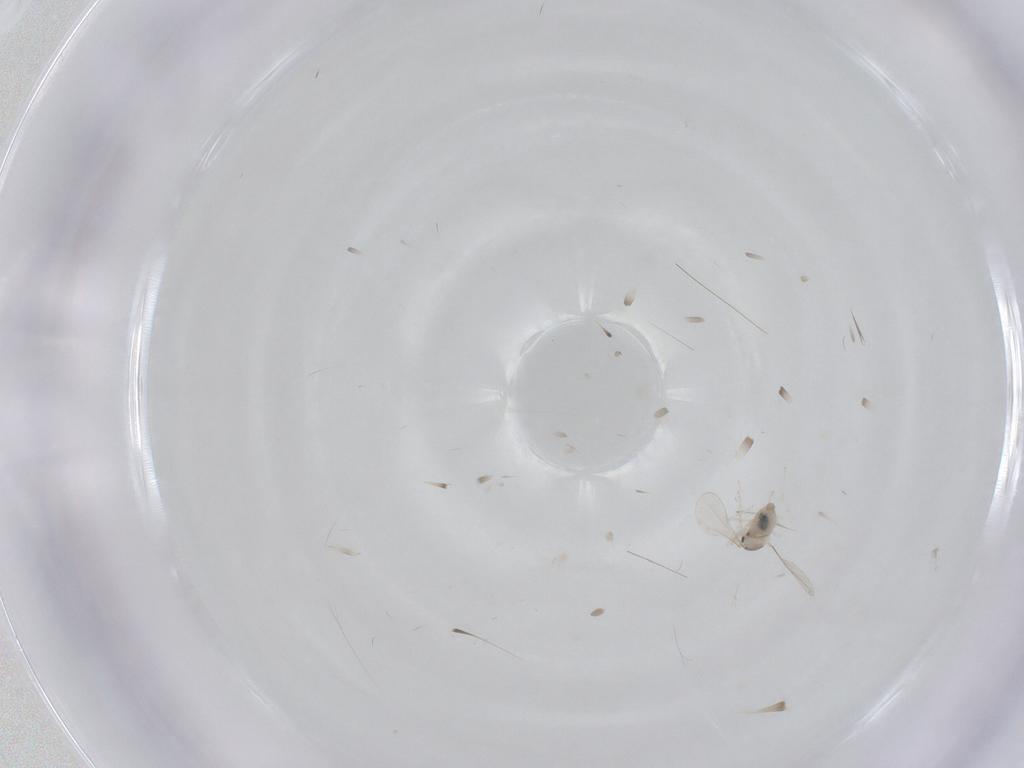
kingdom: Animalia
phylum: Arthropoda
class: Insecta
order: Diptera
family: Cecidomyiidae
